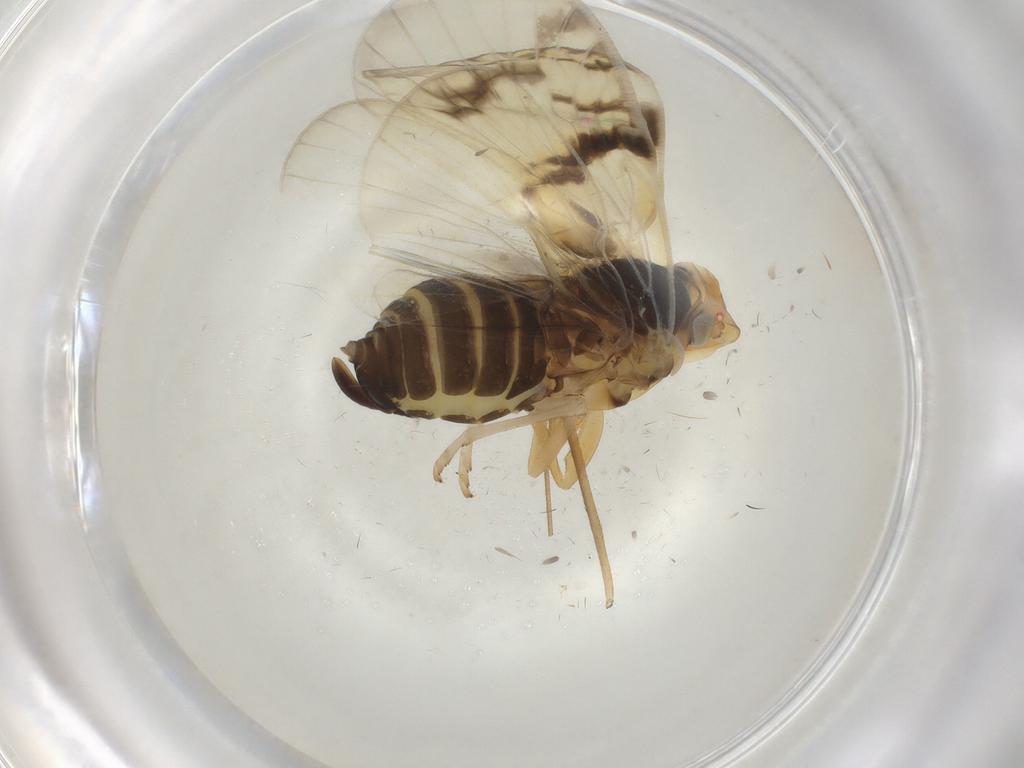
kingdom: Animalia
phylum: Arthropoda
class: Insecta
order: Hemiptera
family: Cixiidae
